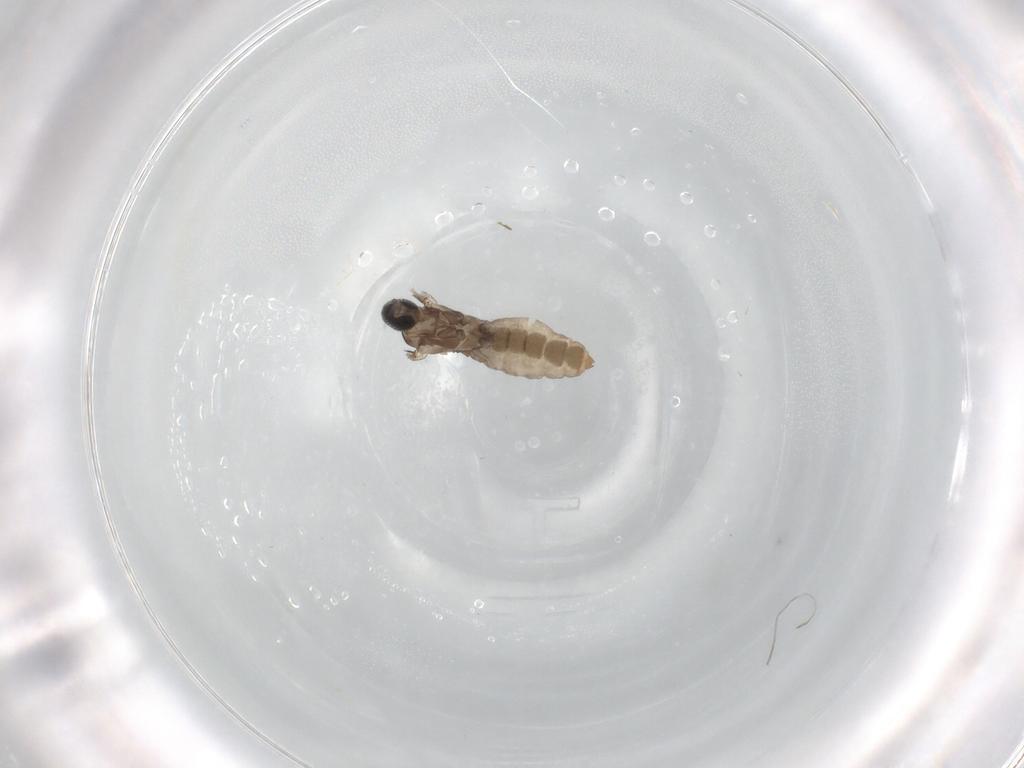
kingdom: Animalia
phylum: Arthropoda
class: Insecta
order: Diptera
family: Cecidomyiidae
